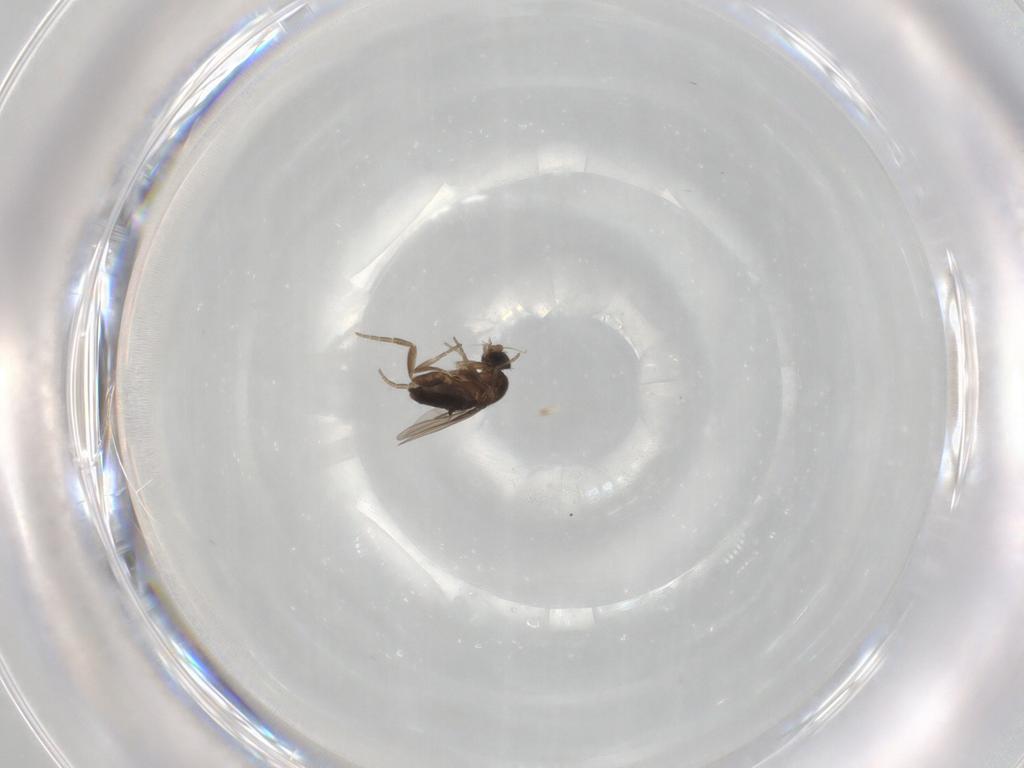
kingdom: Animalia
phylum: Arthropoda
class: Insecta
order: Diptera
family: Phoridae
